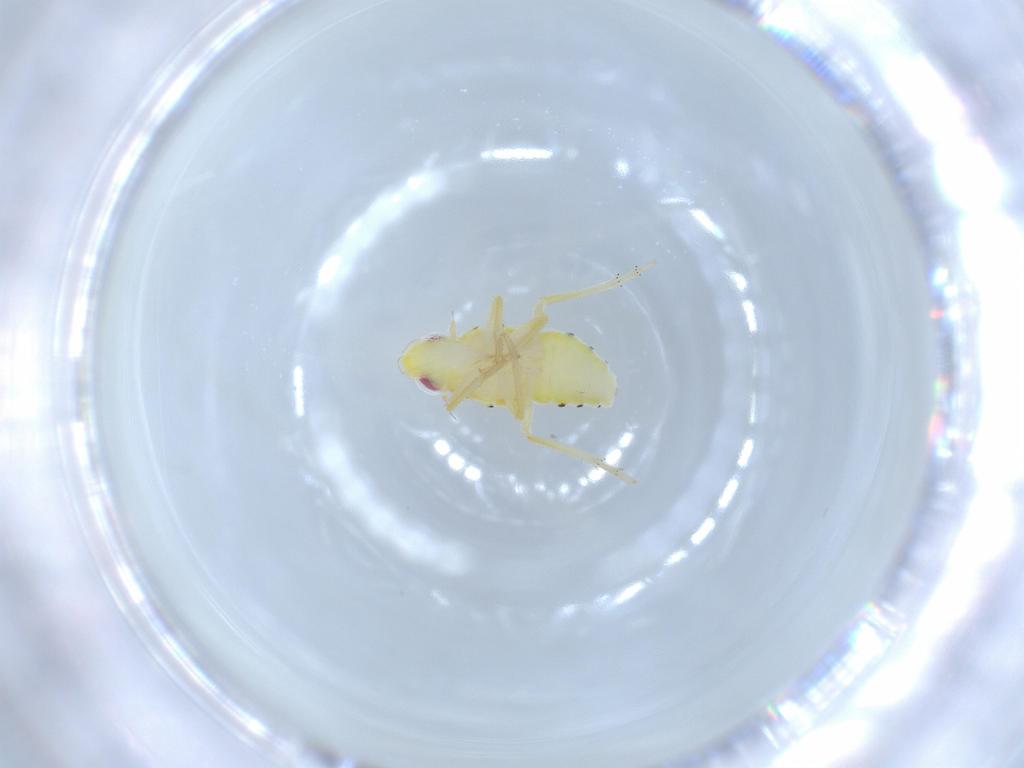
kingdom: Animalia
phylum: Arthropoda
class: Insecta
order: Hemiptera
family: Tropiduchidae
